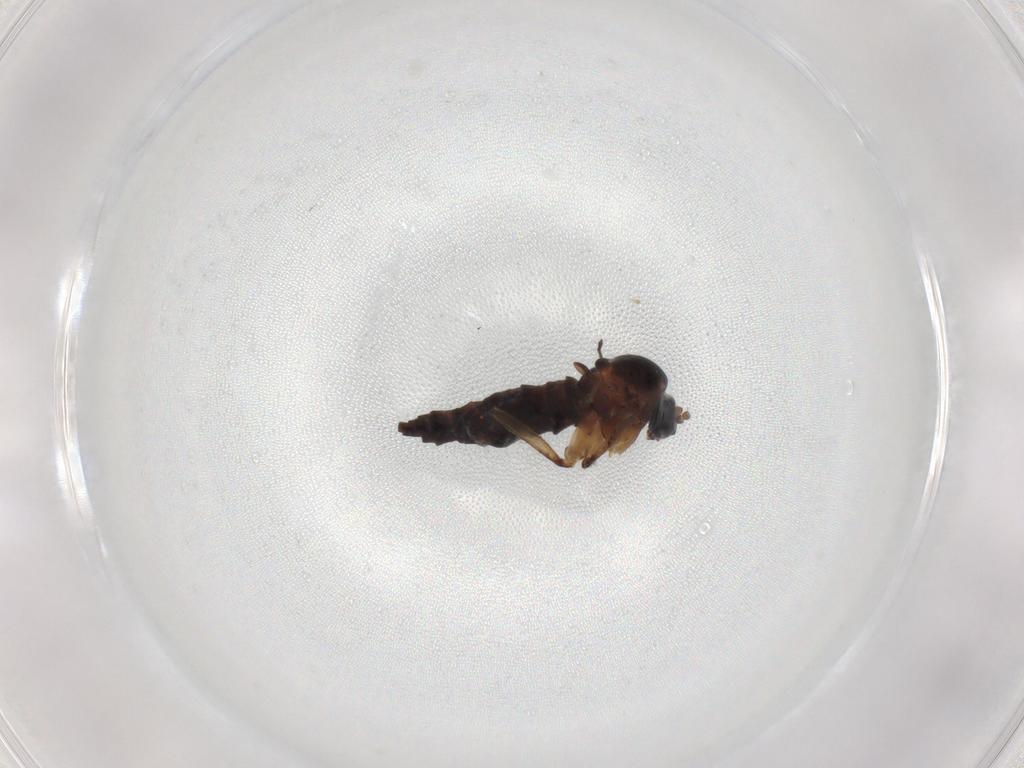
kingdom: Animalia
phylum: Arthropoda
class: Insecta
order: Diptera
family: Sciaridae
